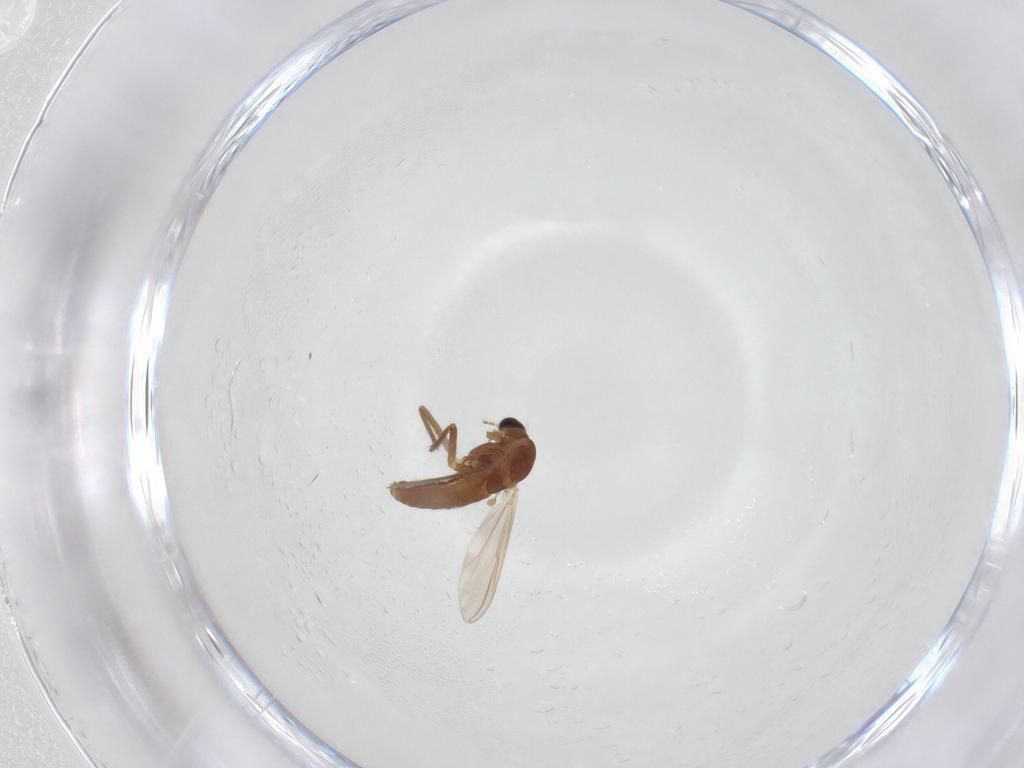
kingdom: Animalia
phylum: Arthropoda
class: Insecta
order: Diptera
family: Chironomidae
